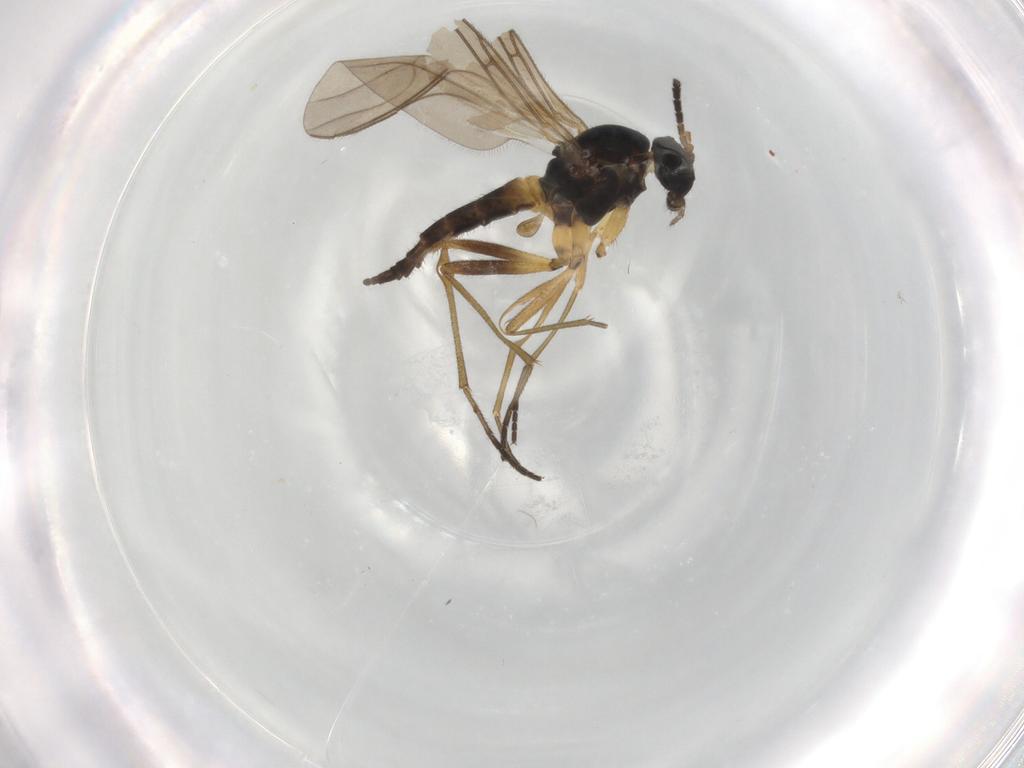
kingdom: Animalia
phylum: Arthropoda
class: Insecta
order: Diptera
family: Sciaridae
